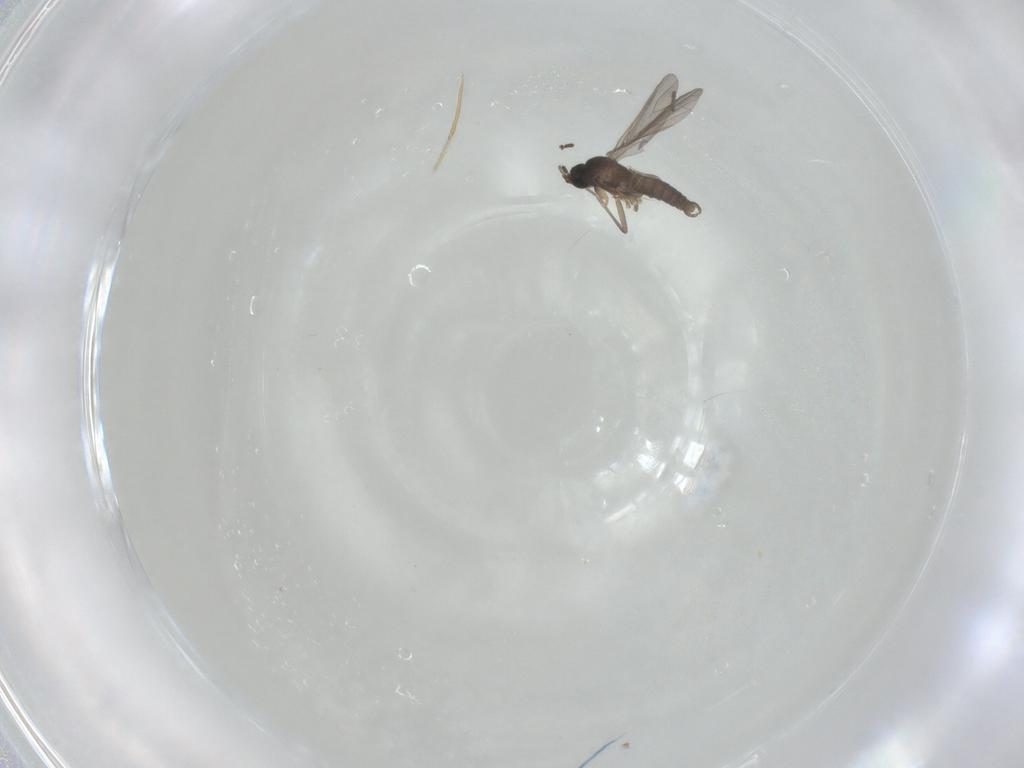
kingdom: Animalia
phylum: Arthropoda
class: Insecta
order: Diptera
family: Sciaridae
